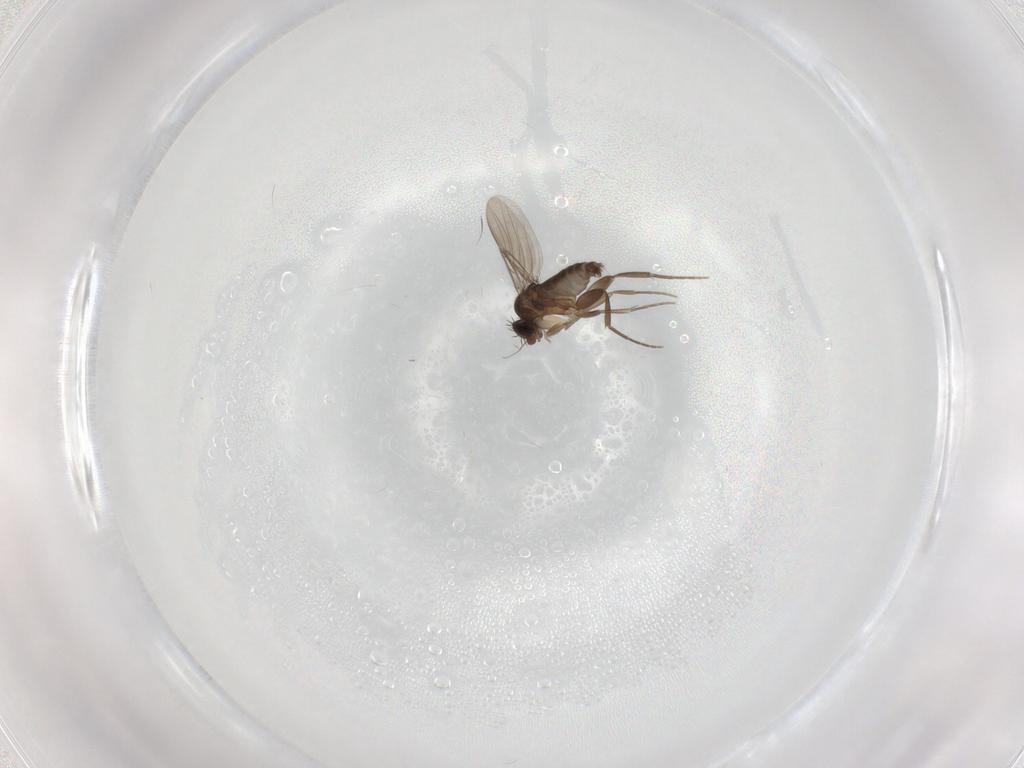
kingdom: Animalia
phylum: Arthropoda
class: Insecta
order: Diptera
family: Phoridae
